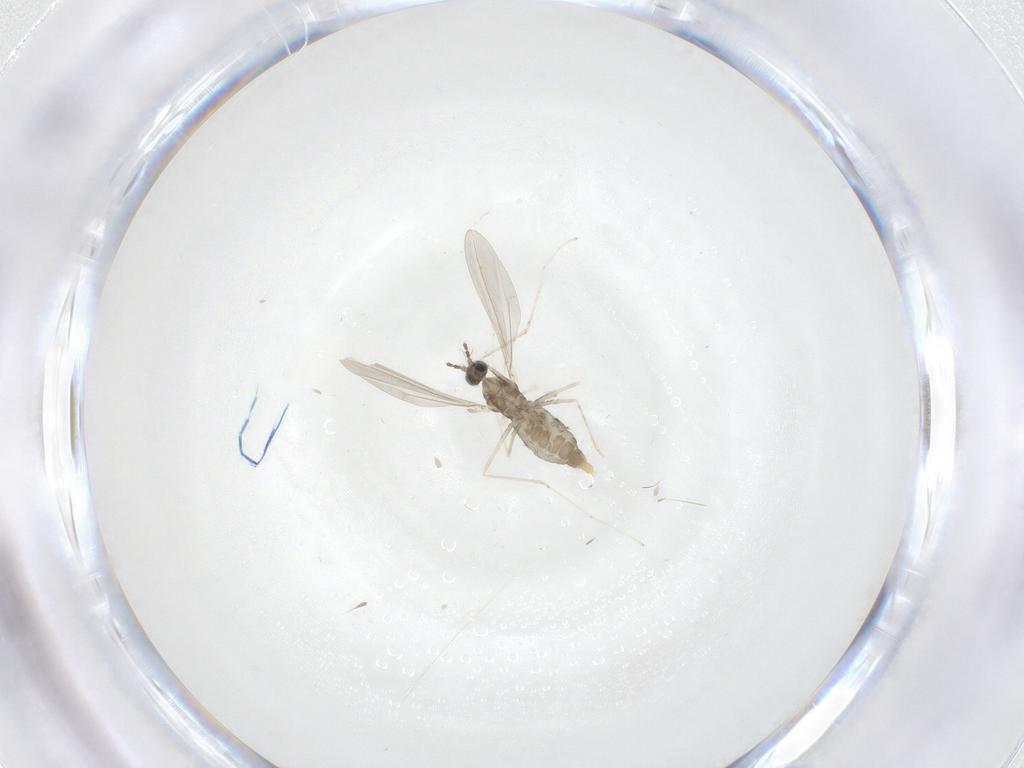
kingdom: Animalia
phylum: Arthropoda
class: Insecta
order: Diptera
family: Cecidomyiidae
